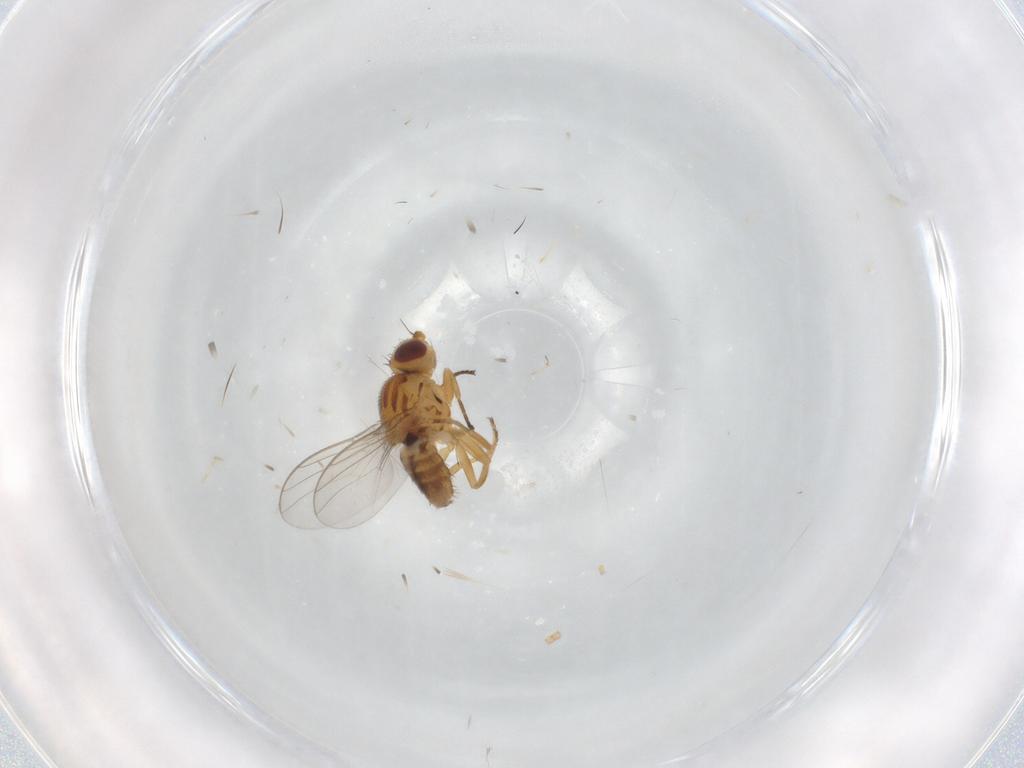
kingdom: Animalia
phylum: Arthropoda
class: Insecta
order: Diptera
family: Chloropidae
